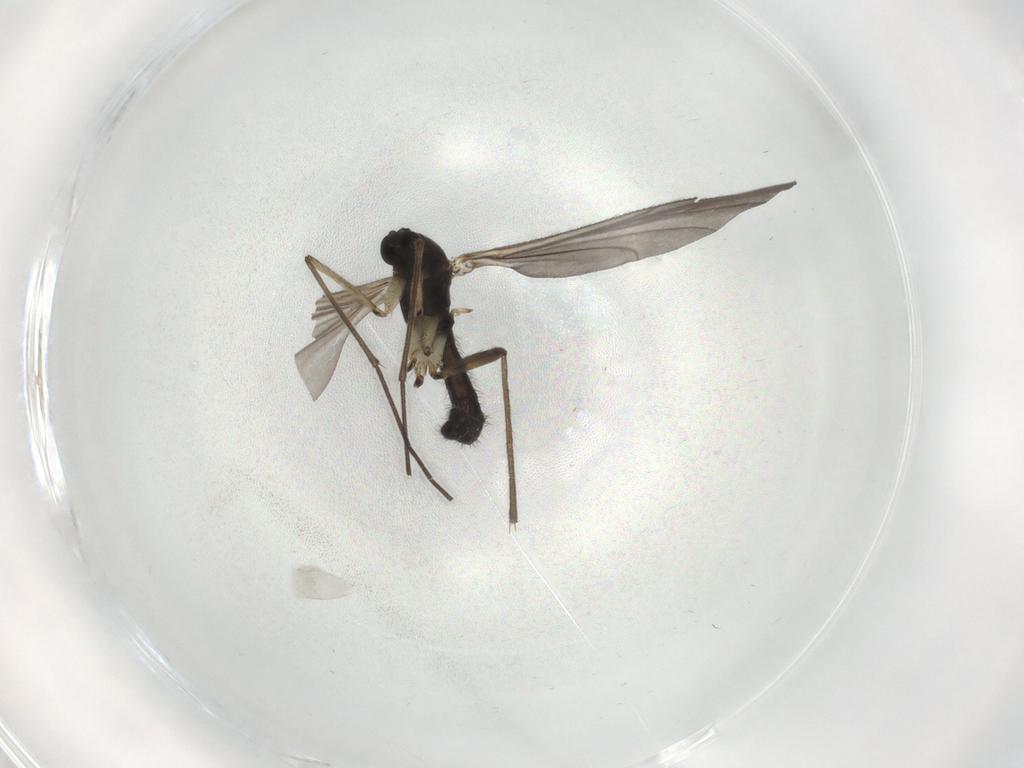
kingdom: Animalia
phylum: Arthropoda
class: Insecta
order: Diptera
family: Sciaridae
